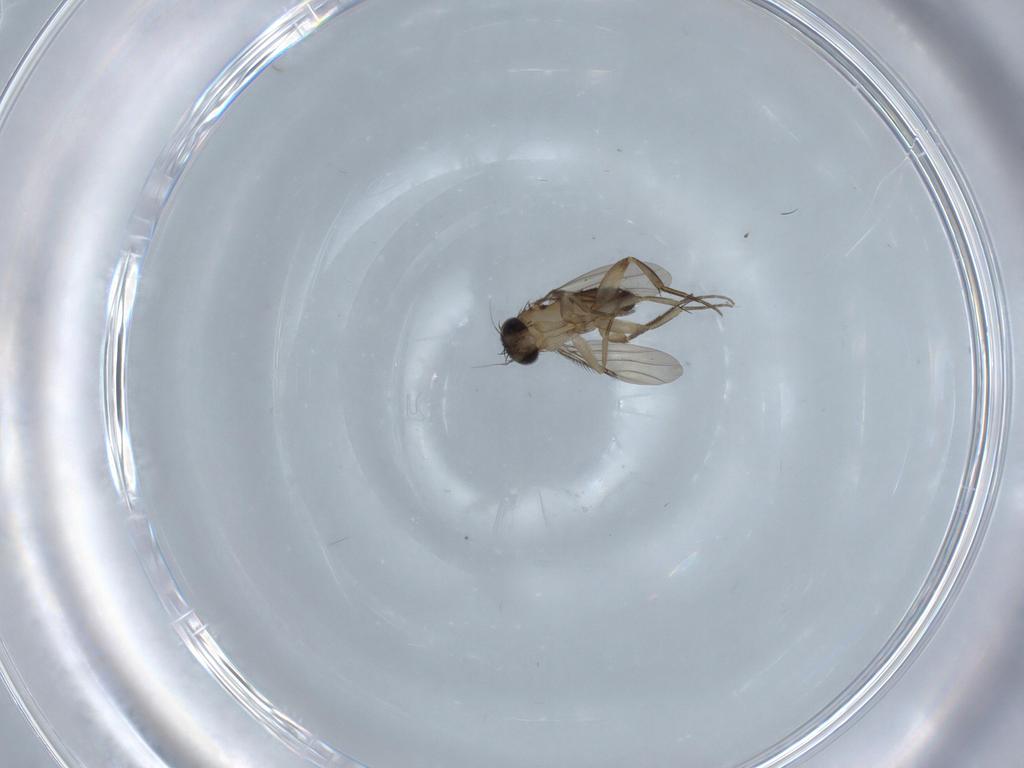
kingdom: Animalia
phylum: Arthropoda
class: Insecta
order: Diptera
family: Phoridae
